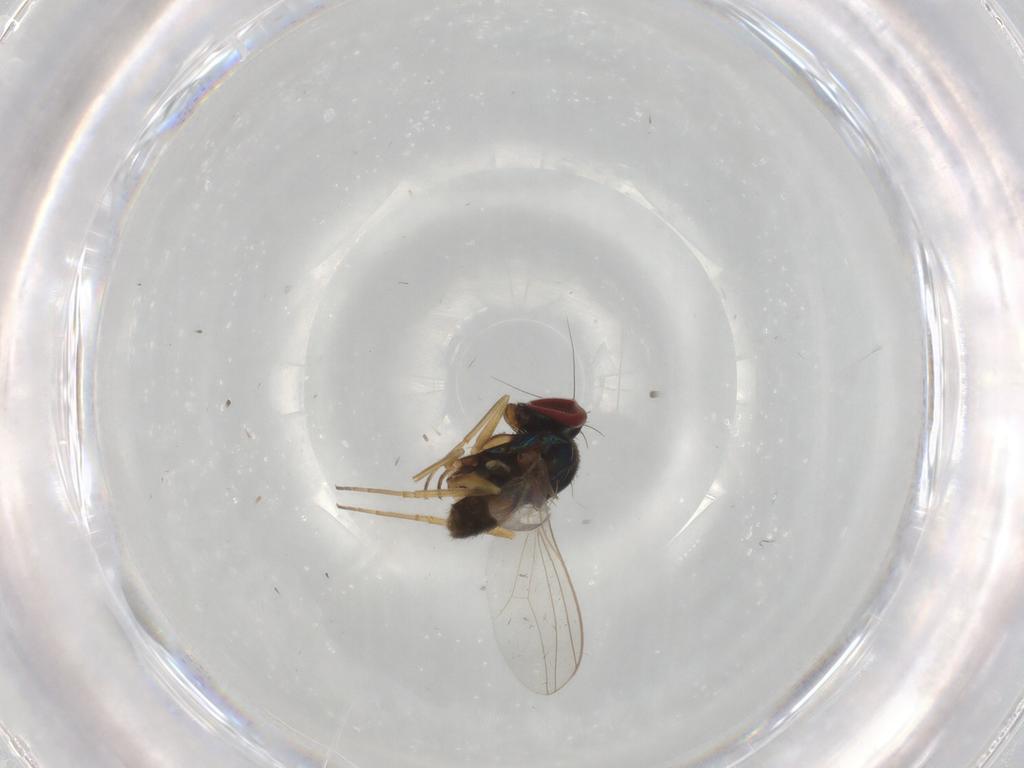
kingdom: Animalia
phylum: Arthropoda
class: Insecta
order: Diptera
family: Dolichopodidae
